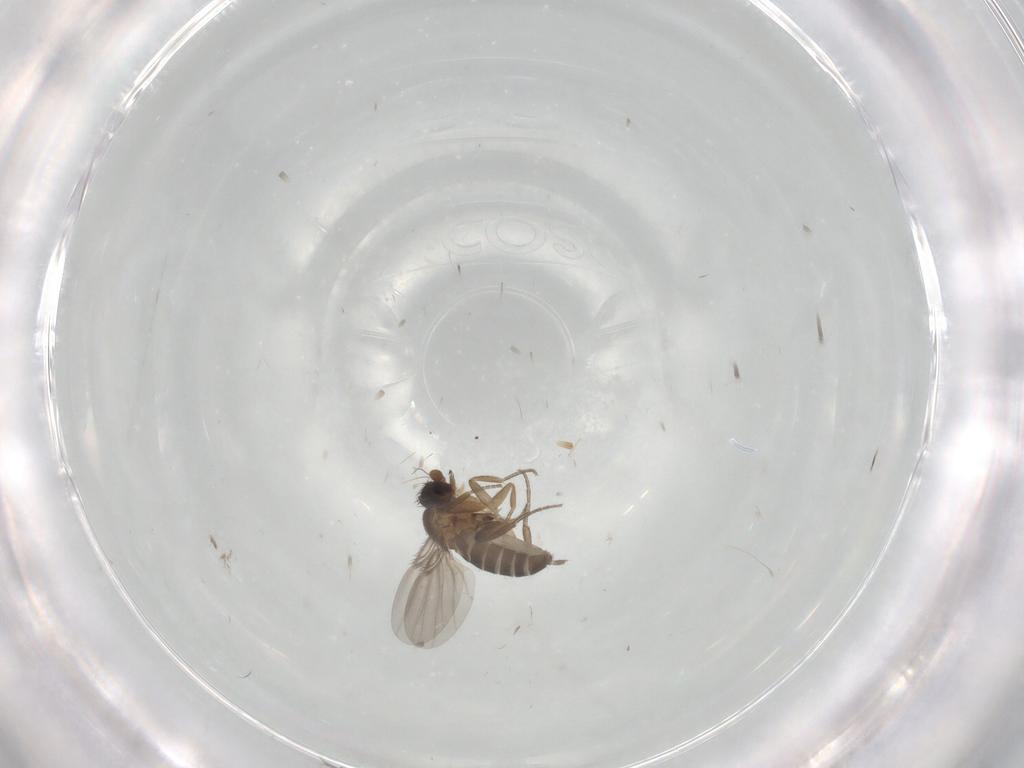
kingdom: Animalia
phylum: Arthropoda
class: Insecta
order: Diptera
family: Phoridae
